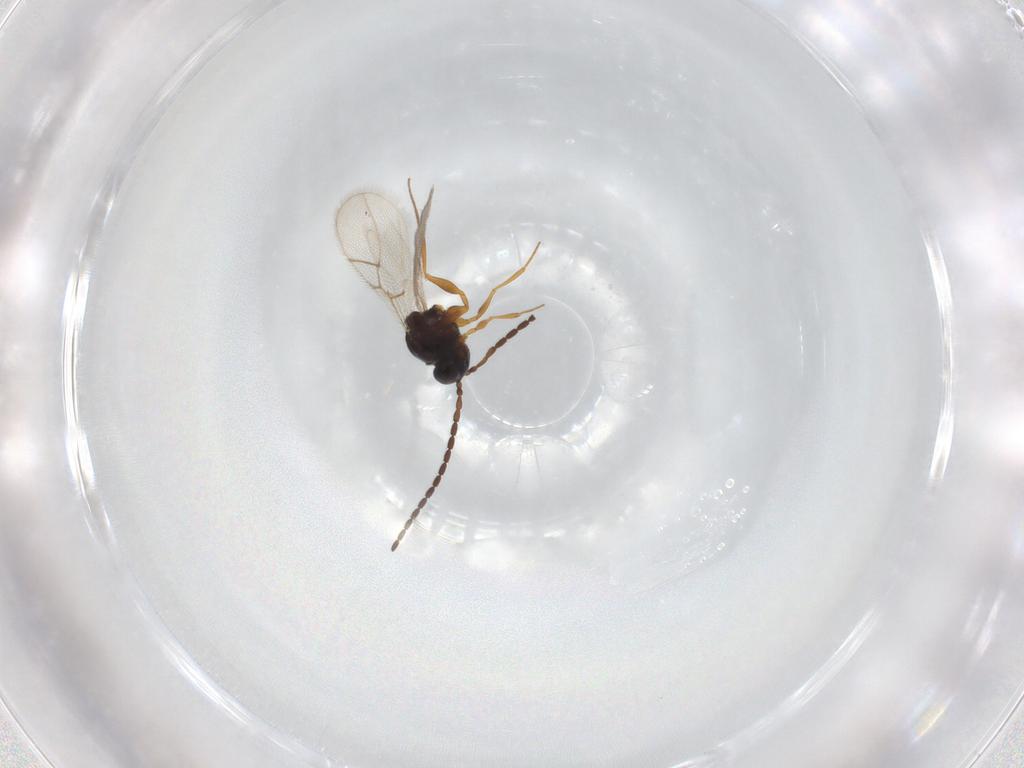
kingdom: Animalia
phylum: Arthropoda
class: Insecta
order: Hymenoptera
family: Figitidae
